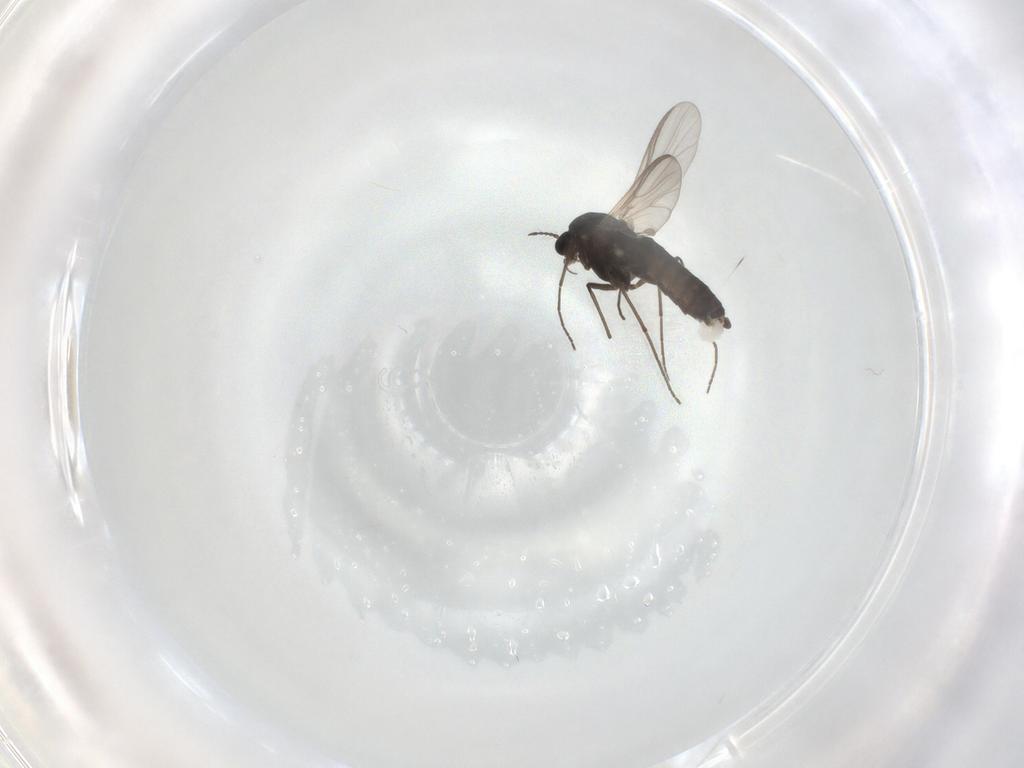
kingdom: Animalia
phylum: Arthropoda
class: Insecta
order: Diptera
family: Chironomidae
